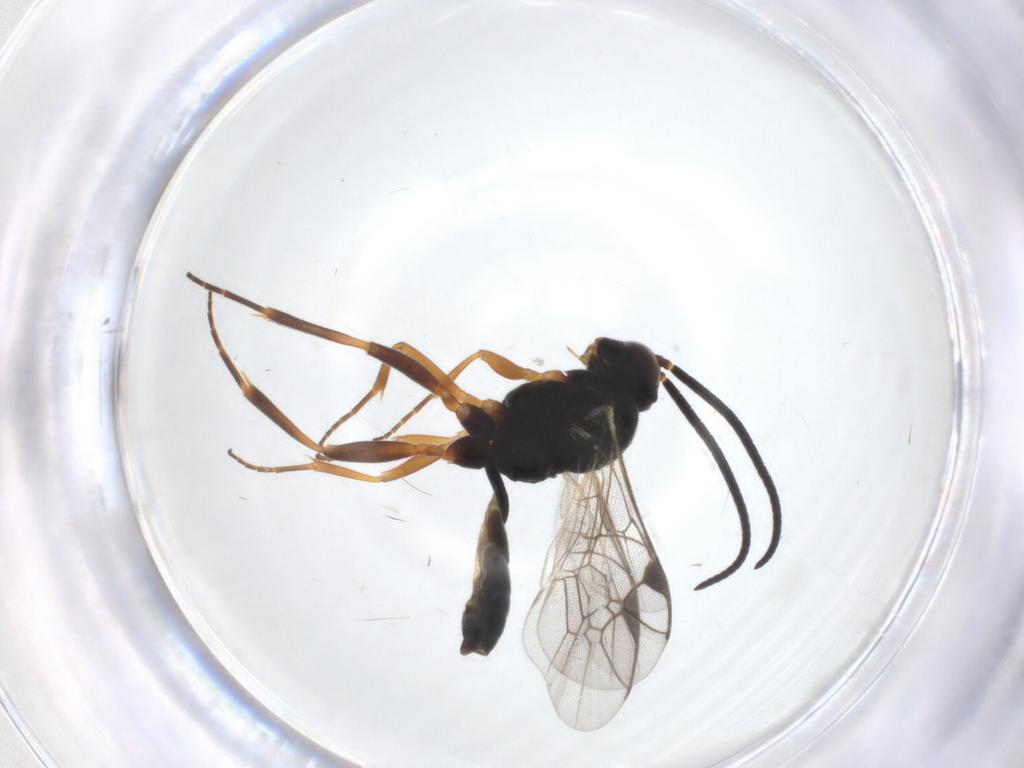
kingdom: Animalia
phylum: Arthropoda
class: Insecta
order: Hymenoptera
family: Ichneumonidae
